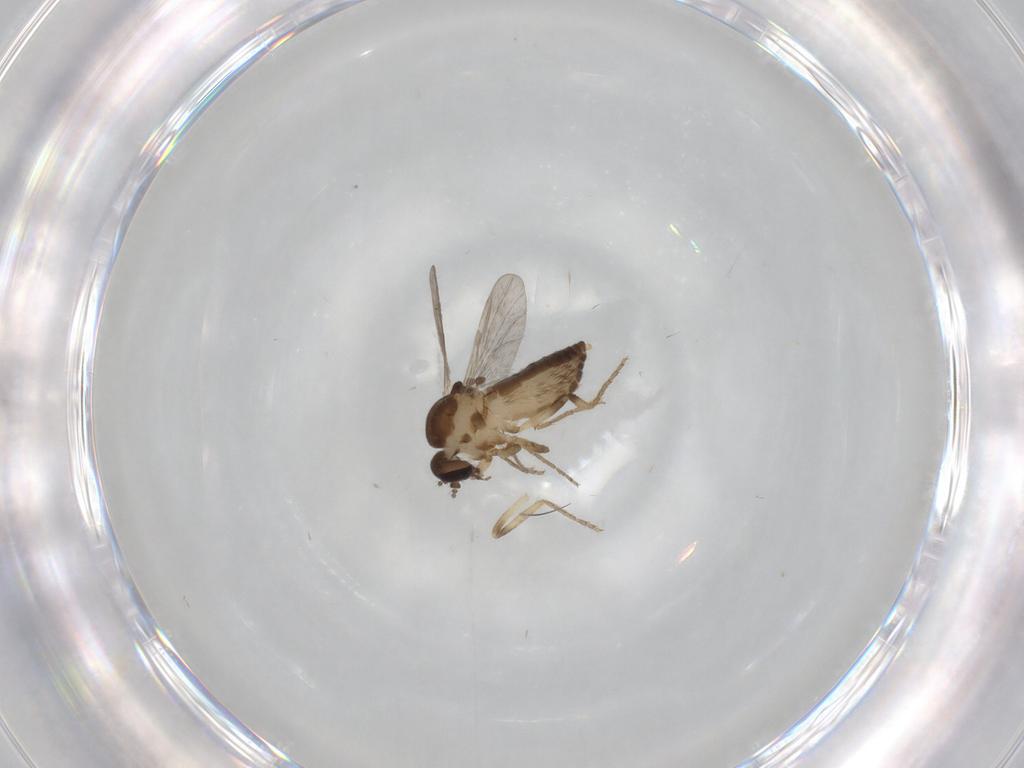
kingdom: Animalia
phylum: Arthropoda
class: Insecta
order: Diptera
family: Ceratopogonidae
